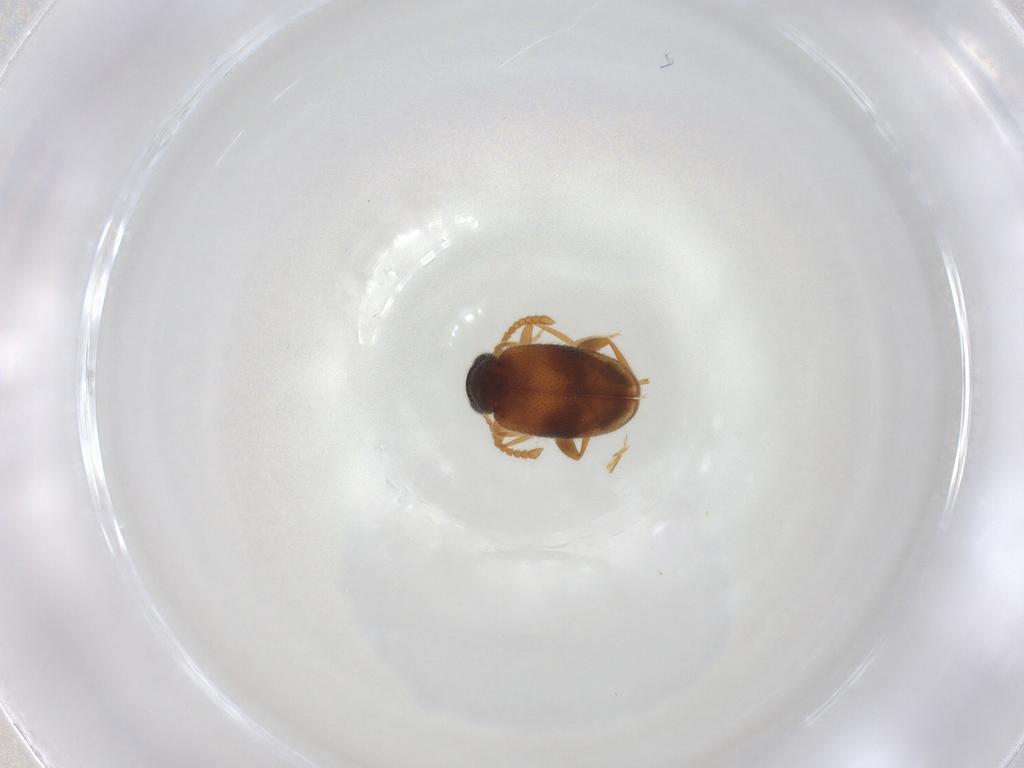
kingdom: Animalia
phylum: Arthropoda
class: Insecta
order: Coleoptera
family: Aderidae
